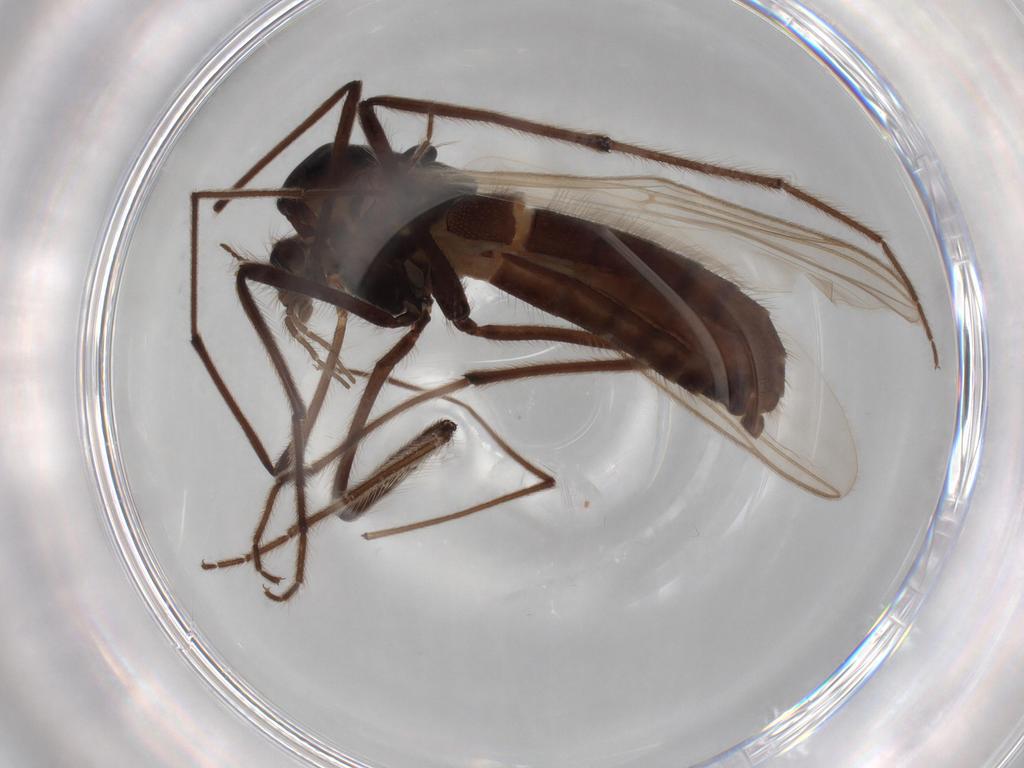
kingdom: Animalia
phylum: Arthropoda
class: Insecta
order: Diptera
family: Chironomidae
